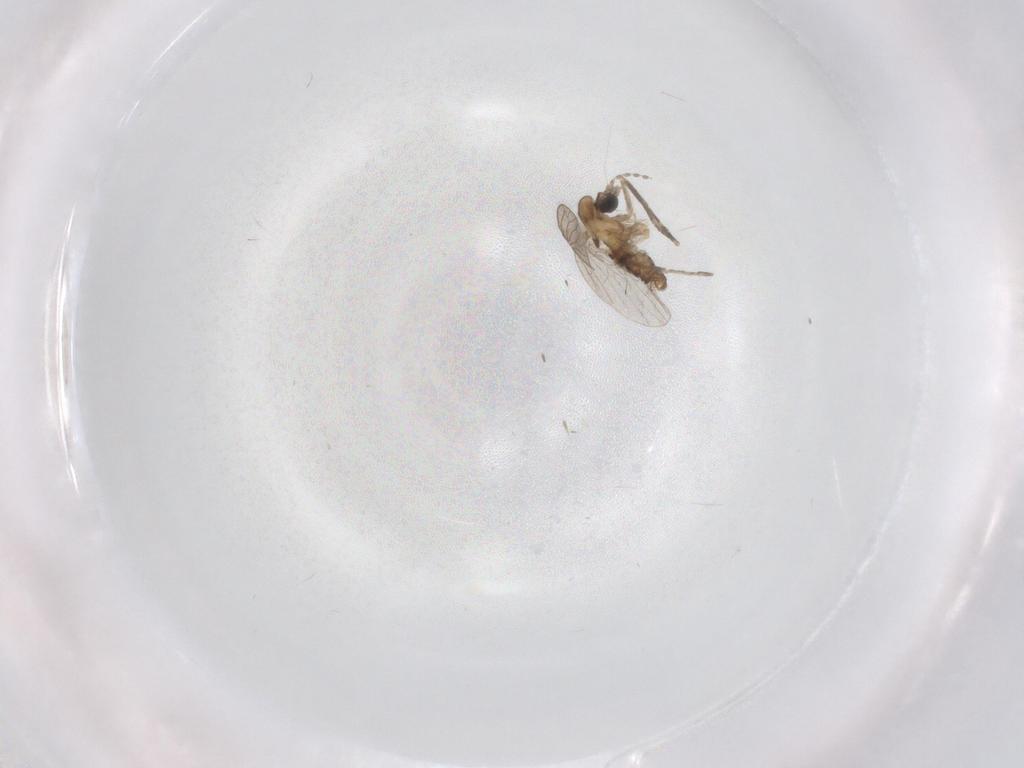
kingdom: Animalia
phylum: Arthropoda
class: Insecta
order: Diptera
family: Psychodidae
